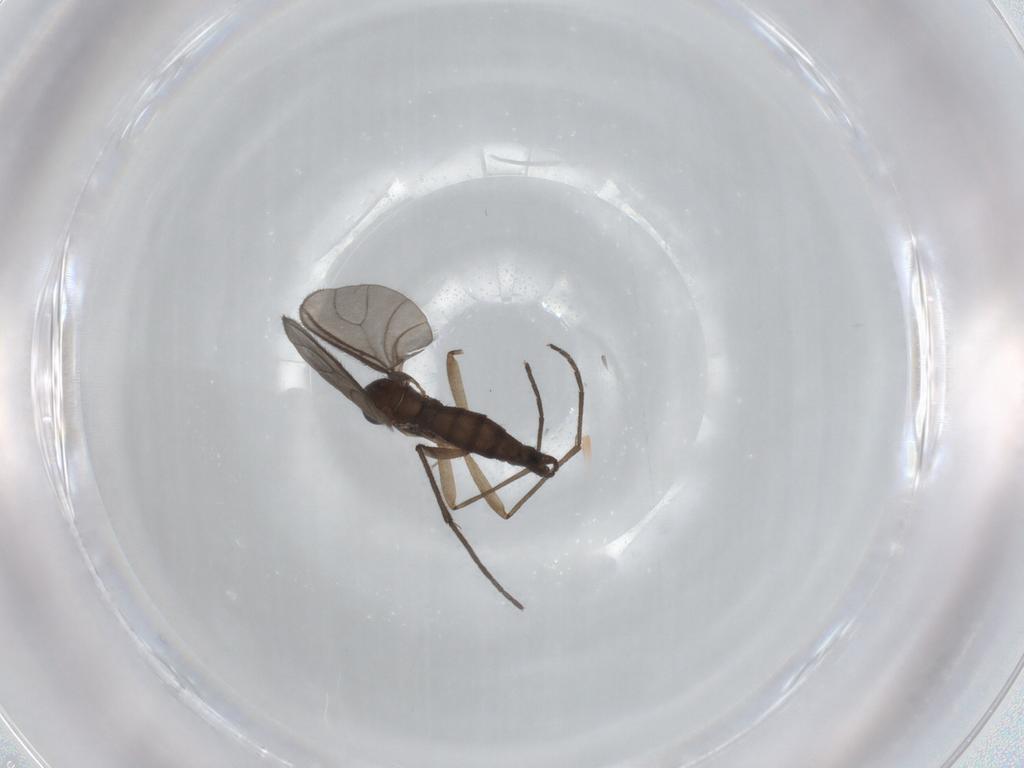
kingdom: Animalia
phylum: Arthropoda
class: Insecta
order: Diptera
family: Sciaridae
